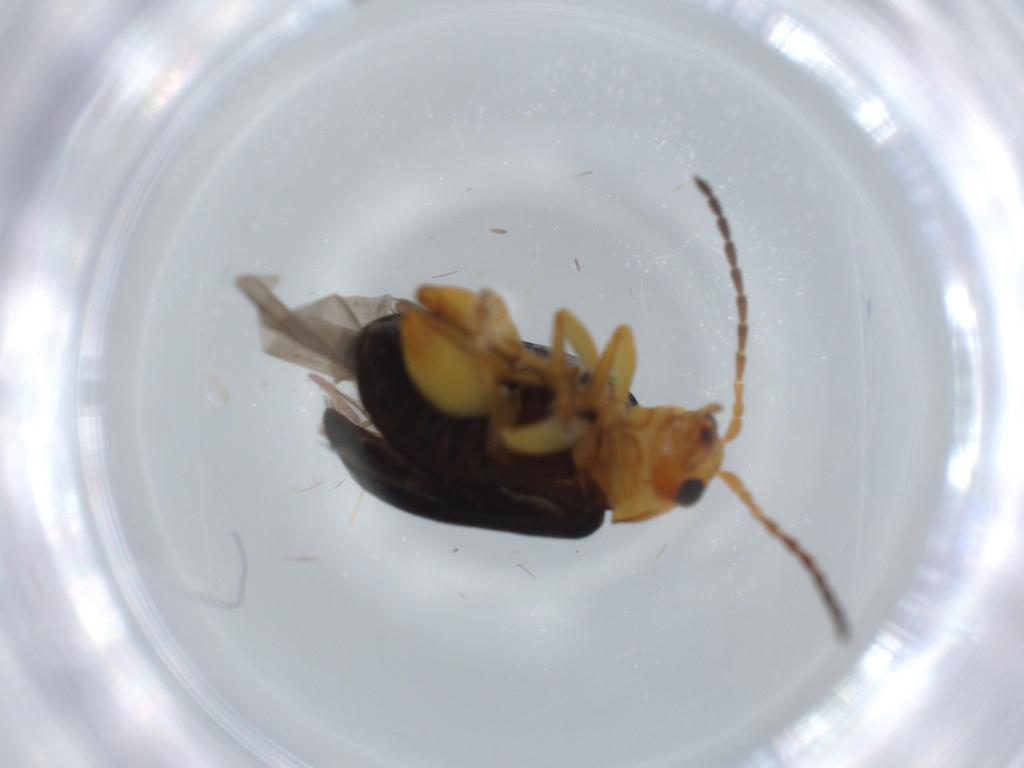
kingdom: Animalia
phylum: Arthropoda
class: Insecta
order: Coleoptera
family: Chrysomelidae
